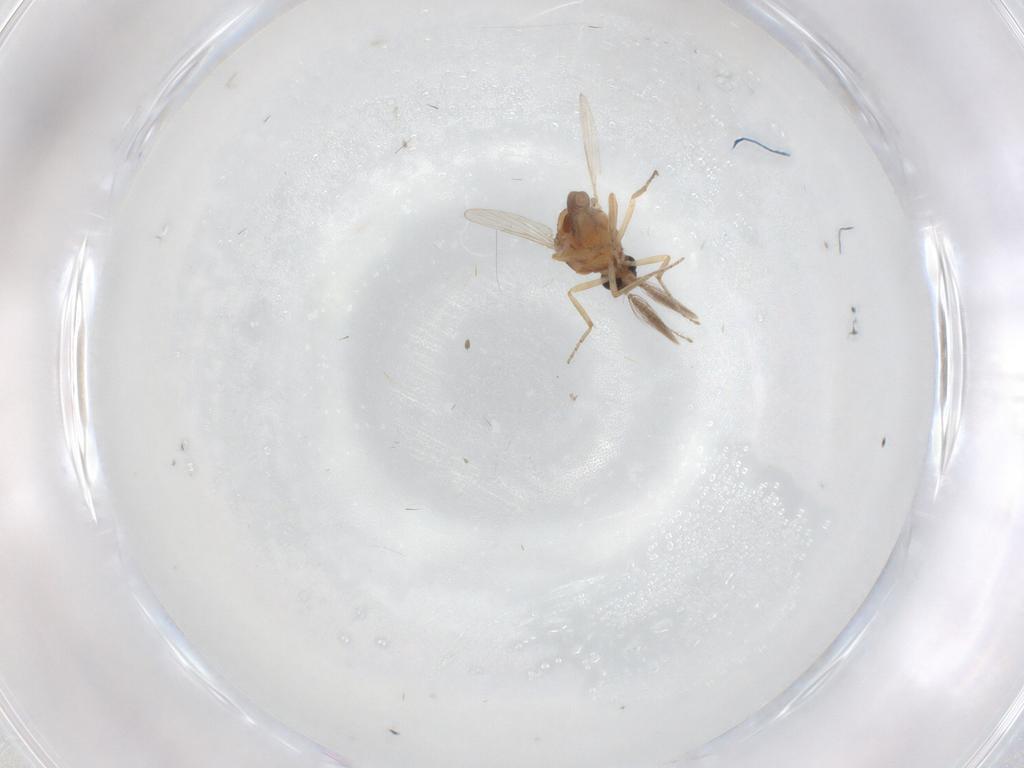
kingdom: Animalia
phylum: Arthropoda
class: Insecta
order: Diptera
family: Ceratopogonidae
